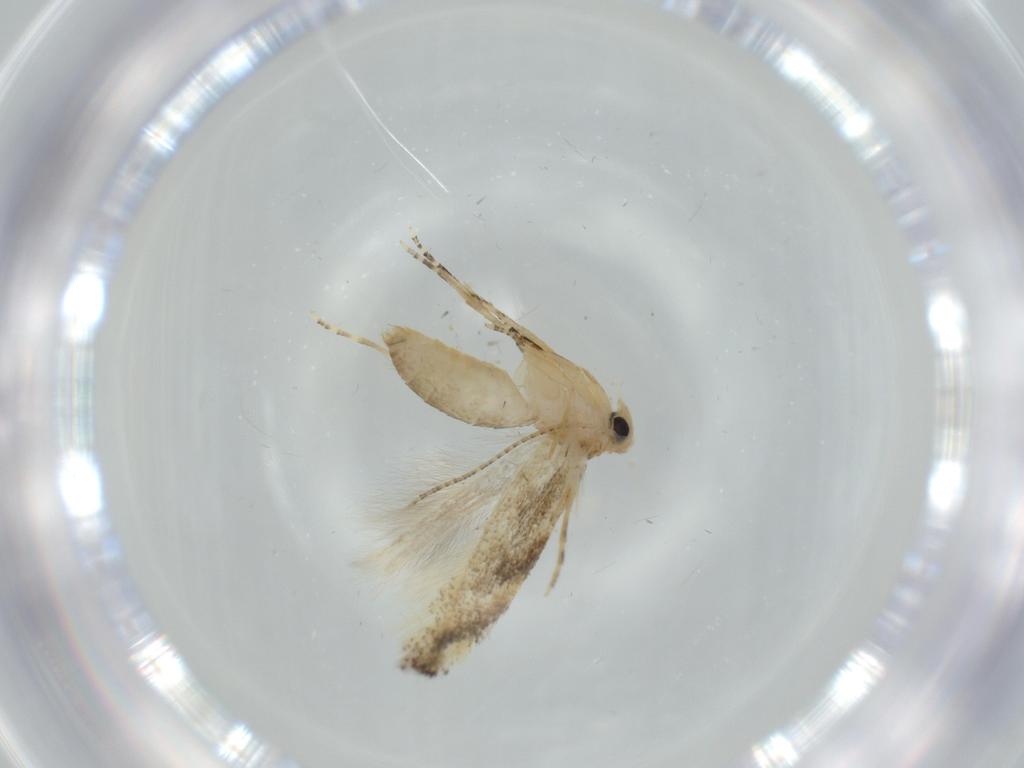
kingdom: Animalia
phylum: Arthropoda
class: Insecta
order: Lepidoptera
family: Bucculatricidae
